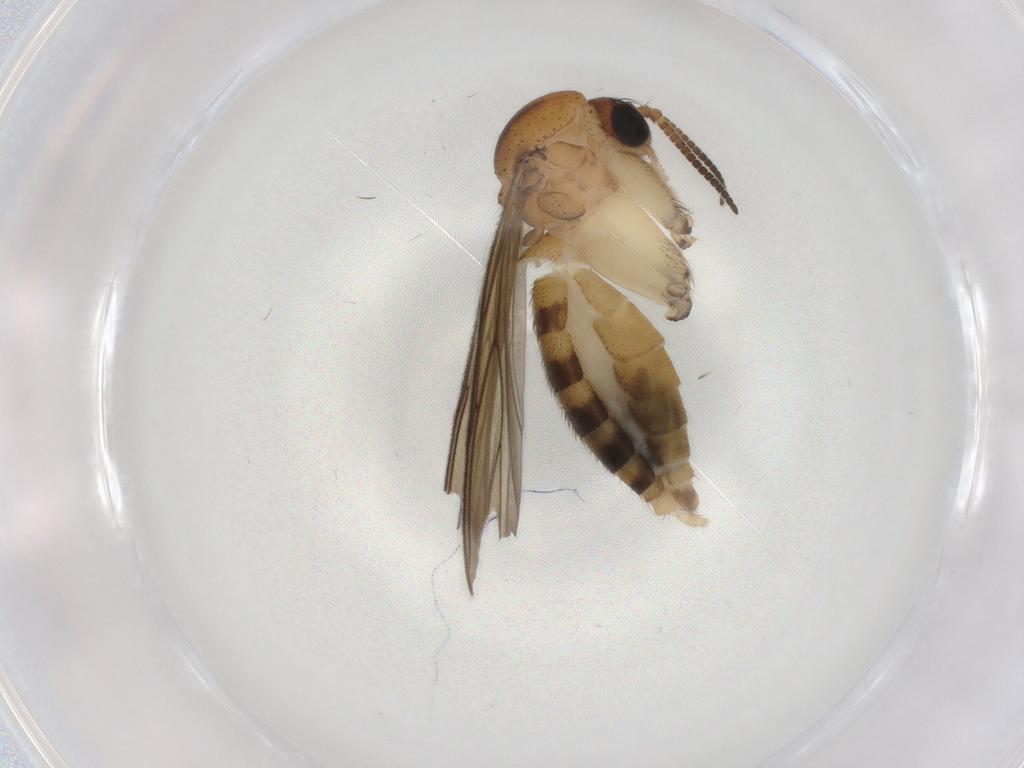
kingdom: Animalia
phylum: Arthropoda
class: Insecta
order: Diptera
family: Mycetophilidae
